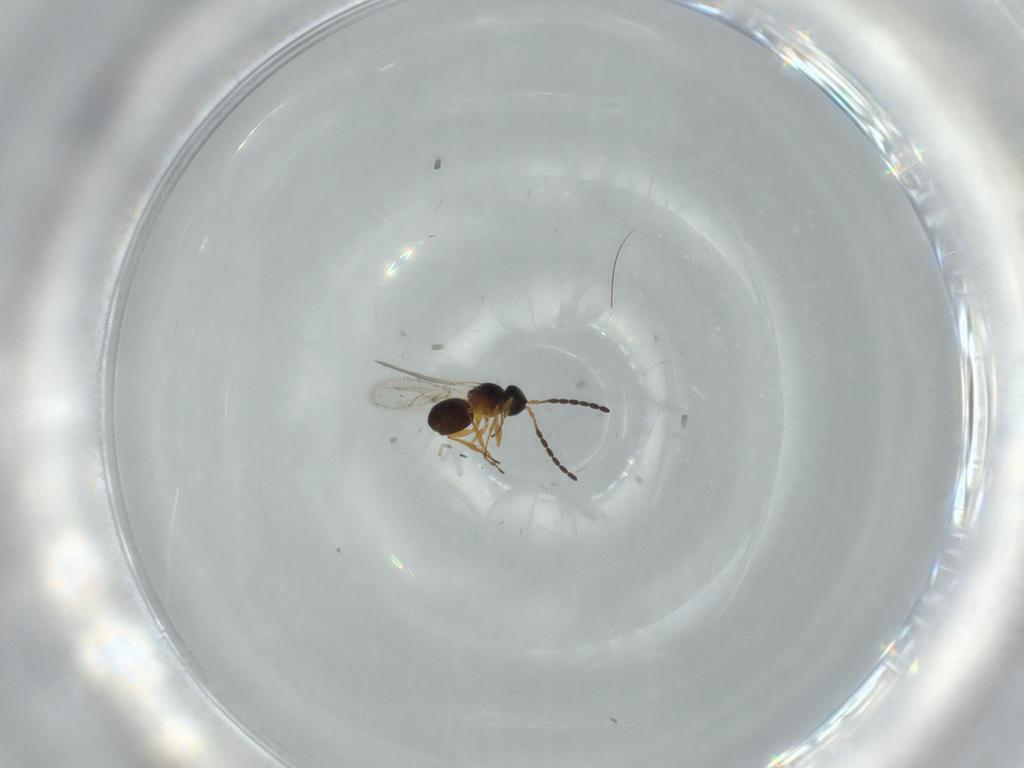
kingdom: Animalia
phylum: Arthropoda
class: Insecta
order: Hymenoptera
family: Figitidae
